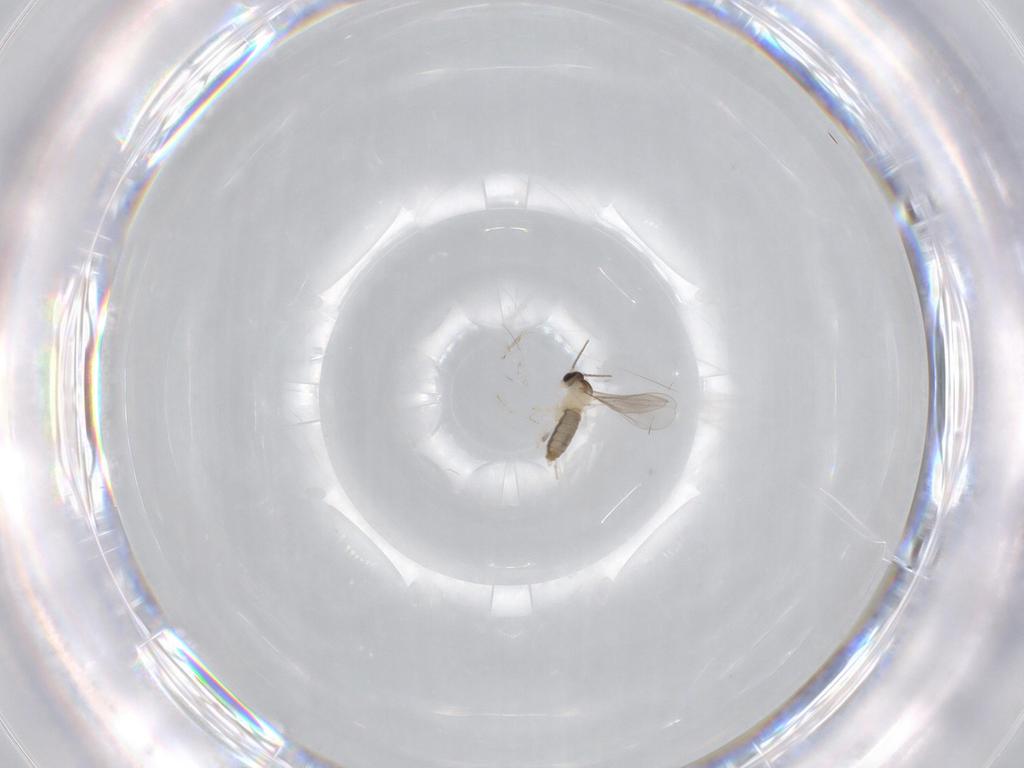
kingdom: Animalia
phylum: Arthropoda
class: Insecta
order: Diptera
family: Cecidomyiidae
